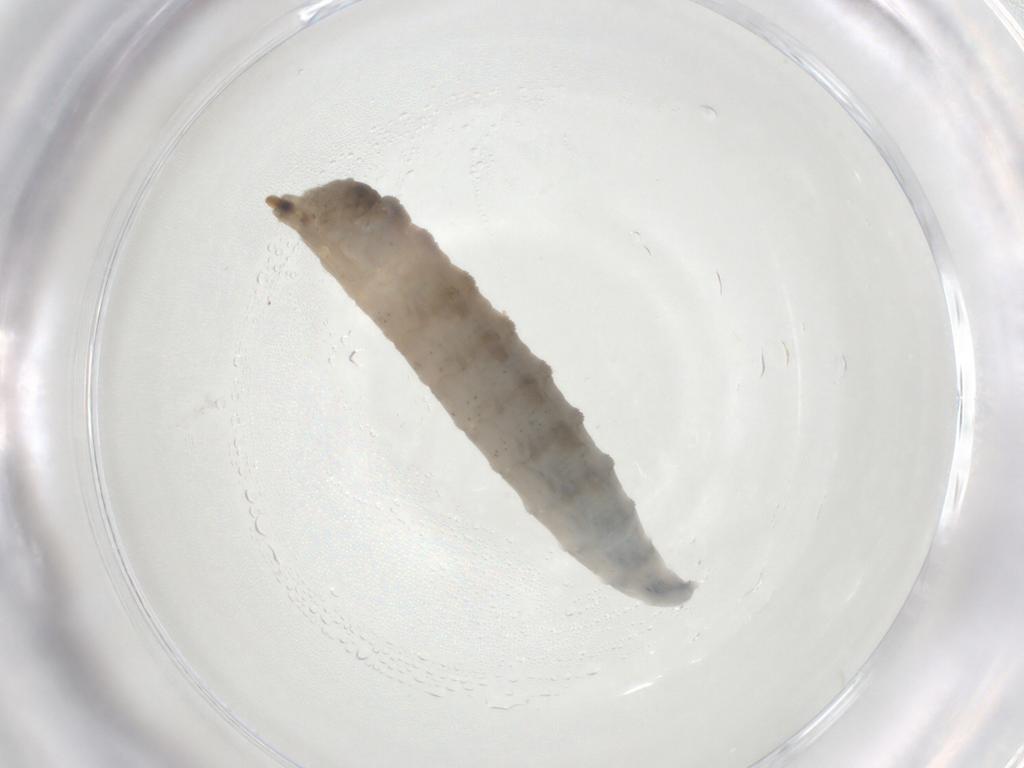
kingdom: Animalia
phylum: Arthropoda
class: Insecta
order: Diptera
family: Drosophilidae
